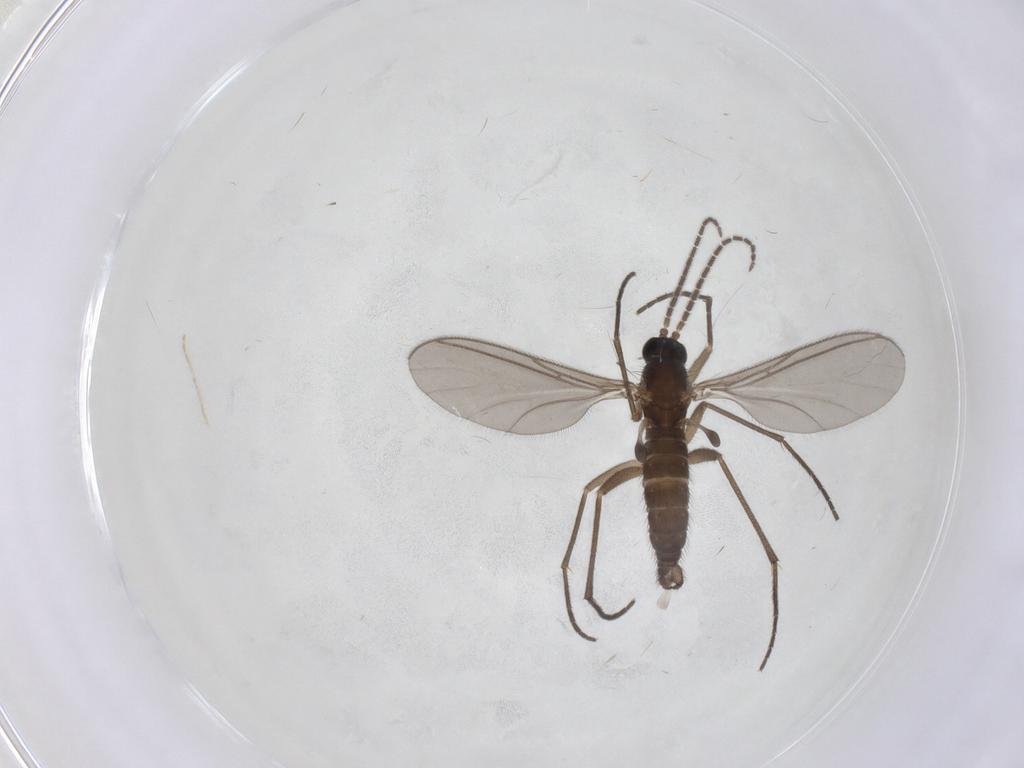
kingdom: Animalia
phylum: Arthropoda
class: Insecta
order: Diptera
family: Sciaridae
